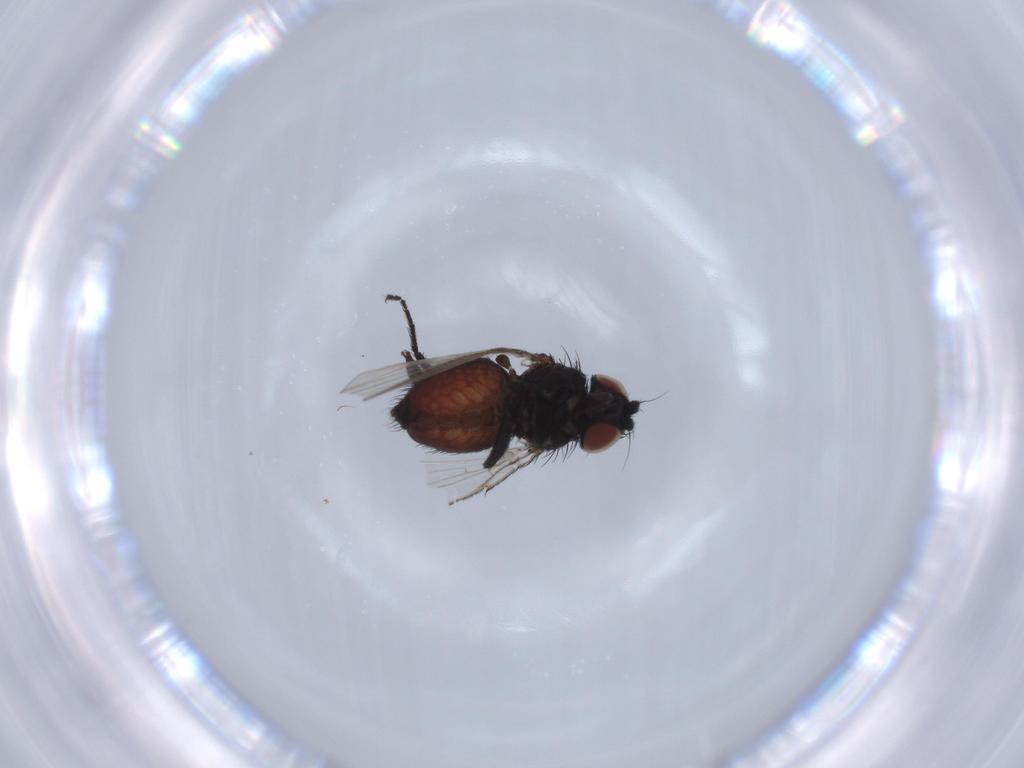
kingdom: Animalia
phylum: Arthropoda
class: Insecta
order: Diptera
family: Milichiidae
